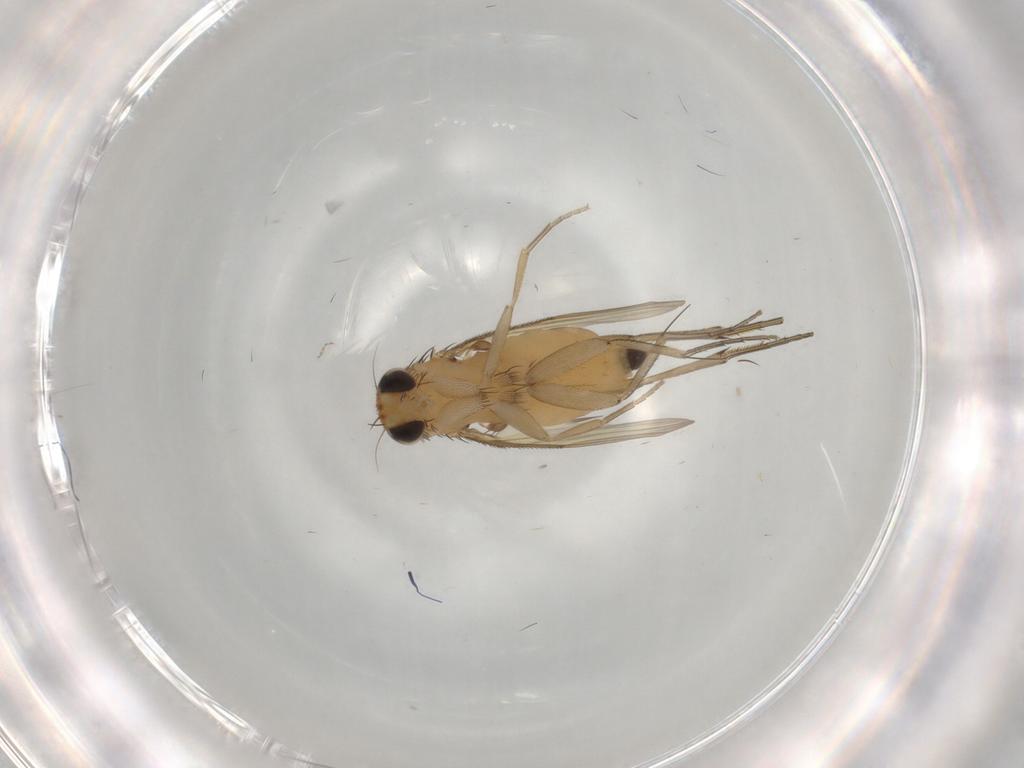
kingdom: Animalia
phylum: Arthropoda
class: Insecta
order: Diptera
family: Phoridae
